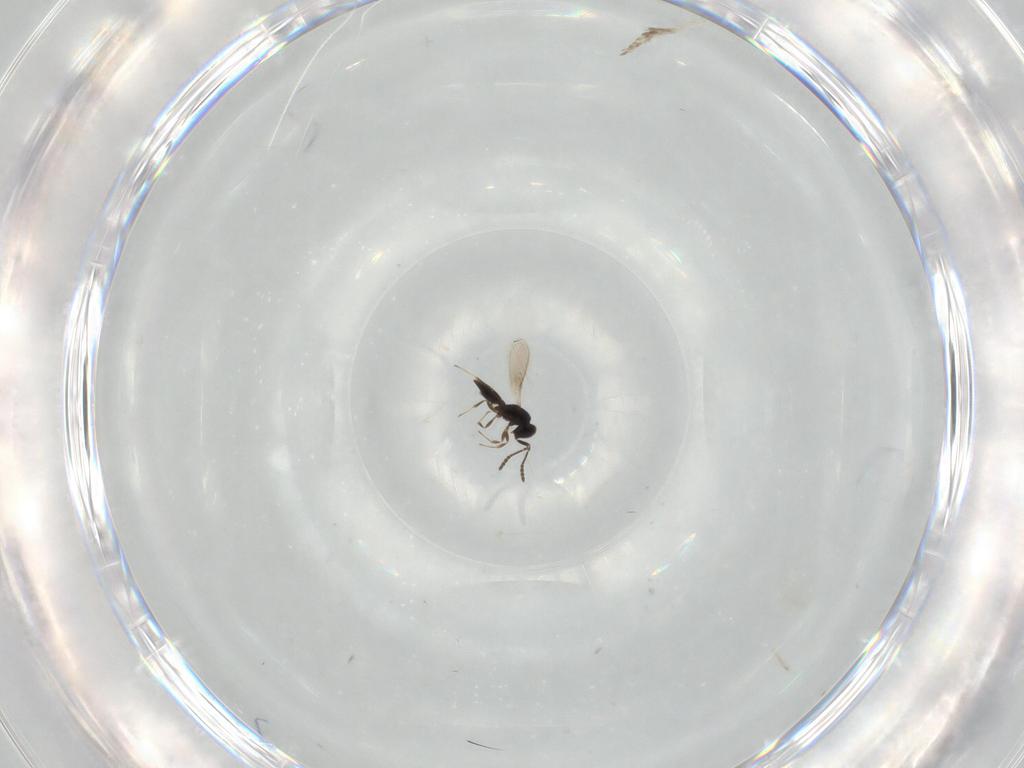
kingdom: Animalia
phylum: Arthropoda
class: Insecta
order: Hymenoptera
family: Scelionidae
